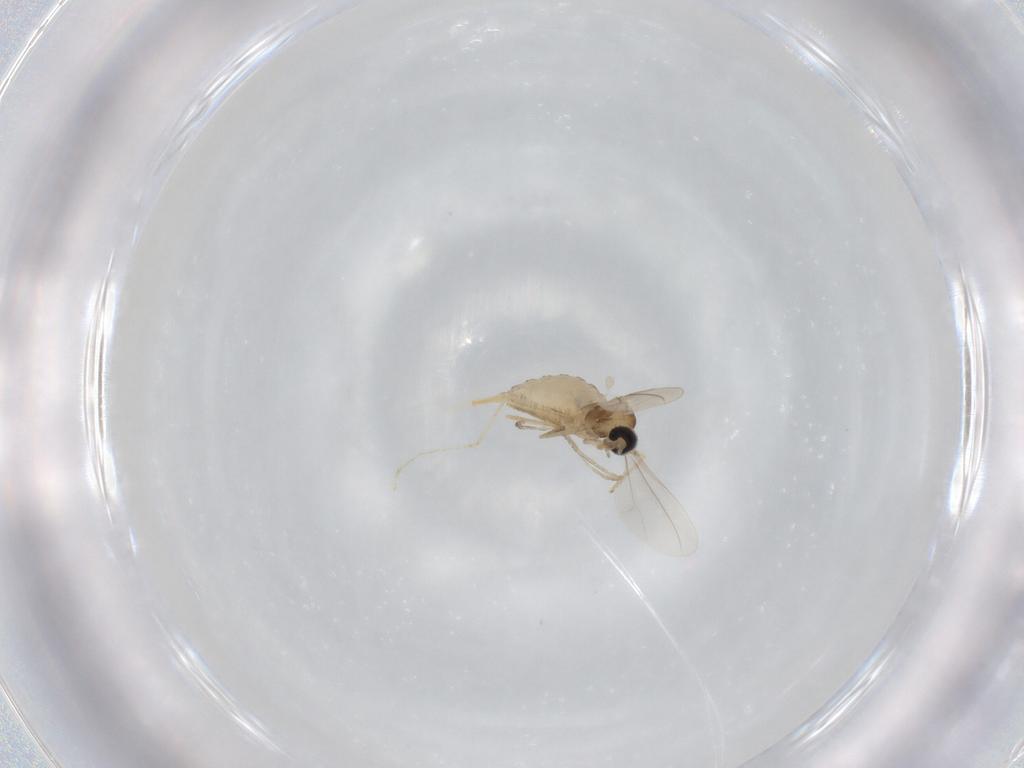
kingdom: Animalia
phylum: Arthropoda
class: Insecta
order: Diptera
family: Cecidomyiidae
